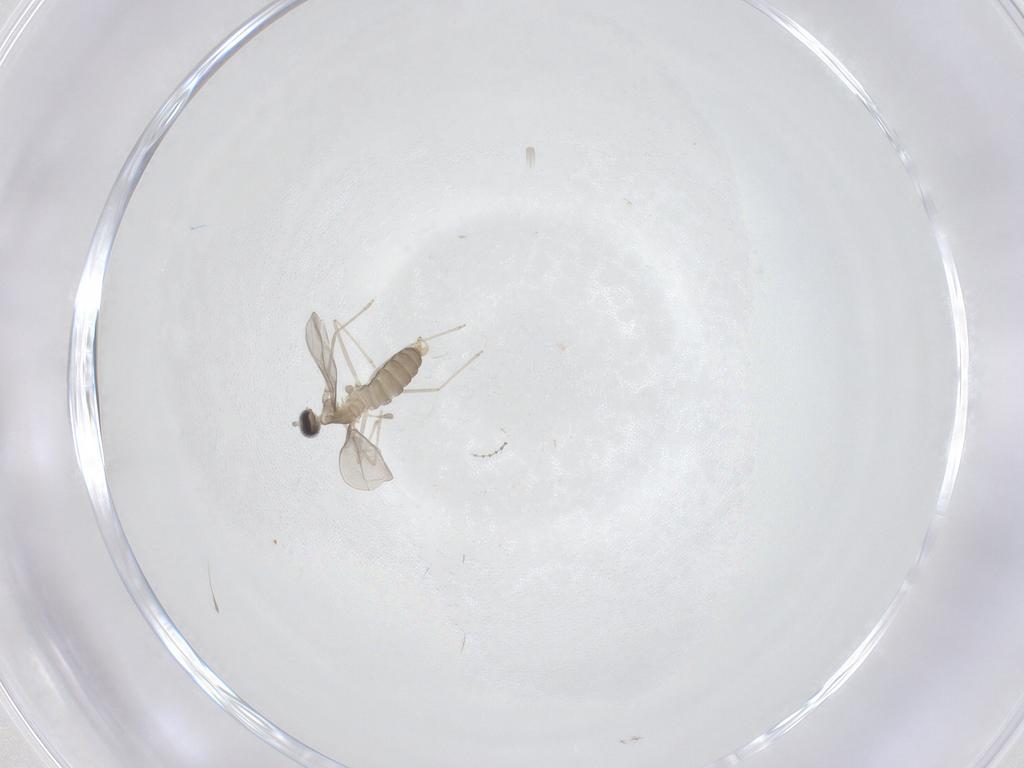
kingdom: Animalia
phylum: Arthropoda
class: Insecta
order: Diptera
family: Cecidomyiidae
